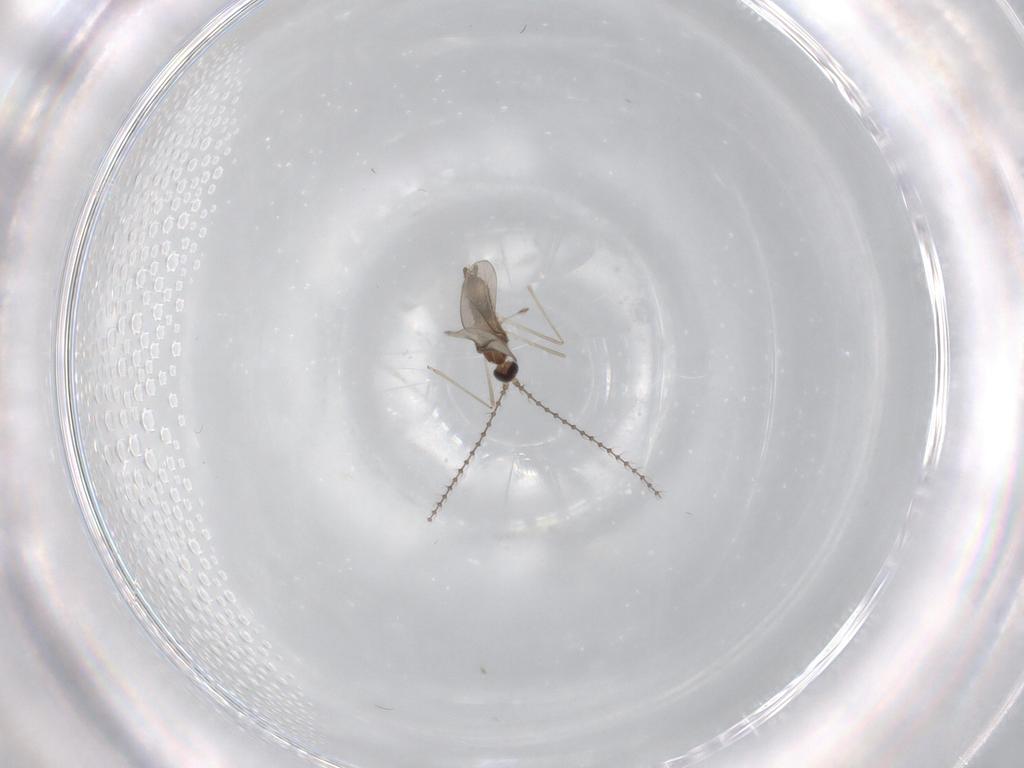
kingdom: Animalia
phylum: Arthropoda
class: Insecta
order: Diptera
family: Cecidomyiidae
